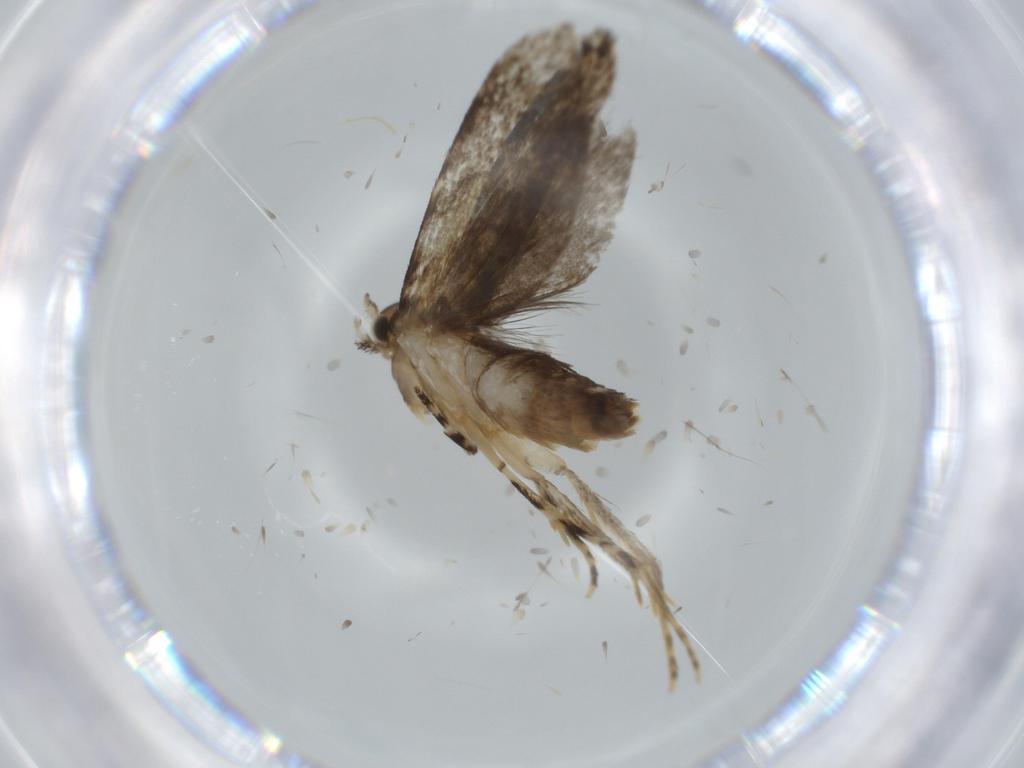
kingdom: Animalia
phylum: Arthropoda
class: Insecta
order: Lepidoptera
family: Tineidae
